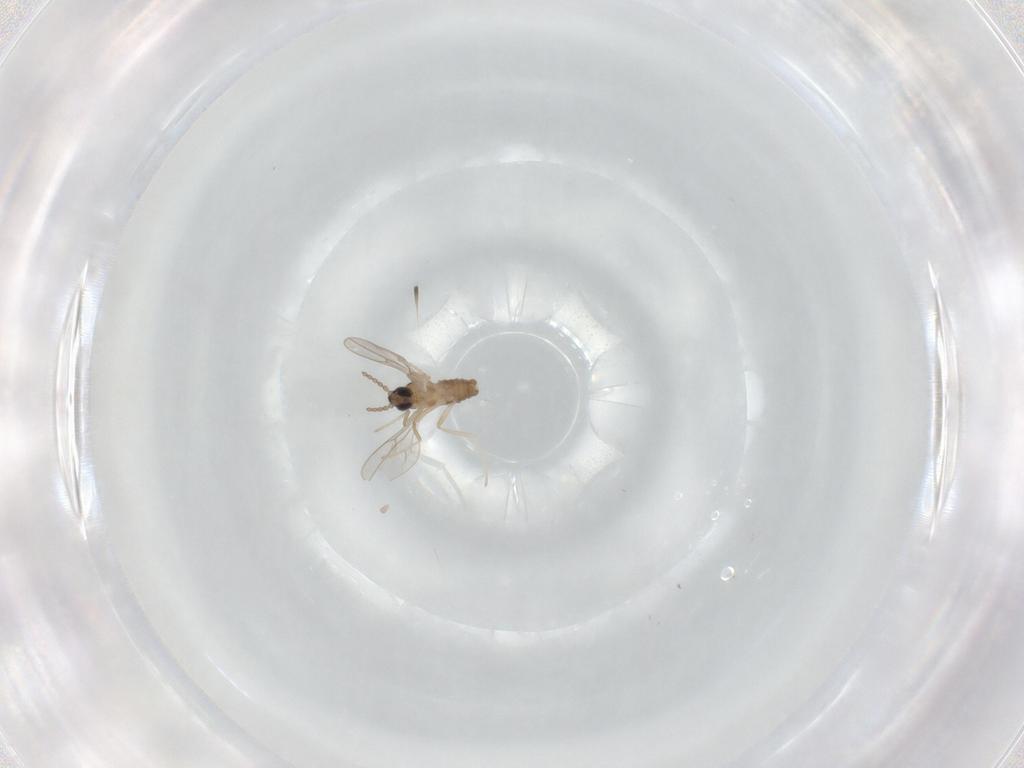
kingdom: Animalia
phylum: Arthropoda
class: Insecta
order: Diptera
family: Cecidomyiidae
